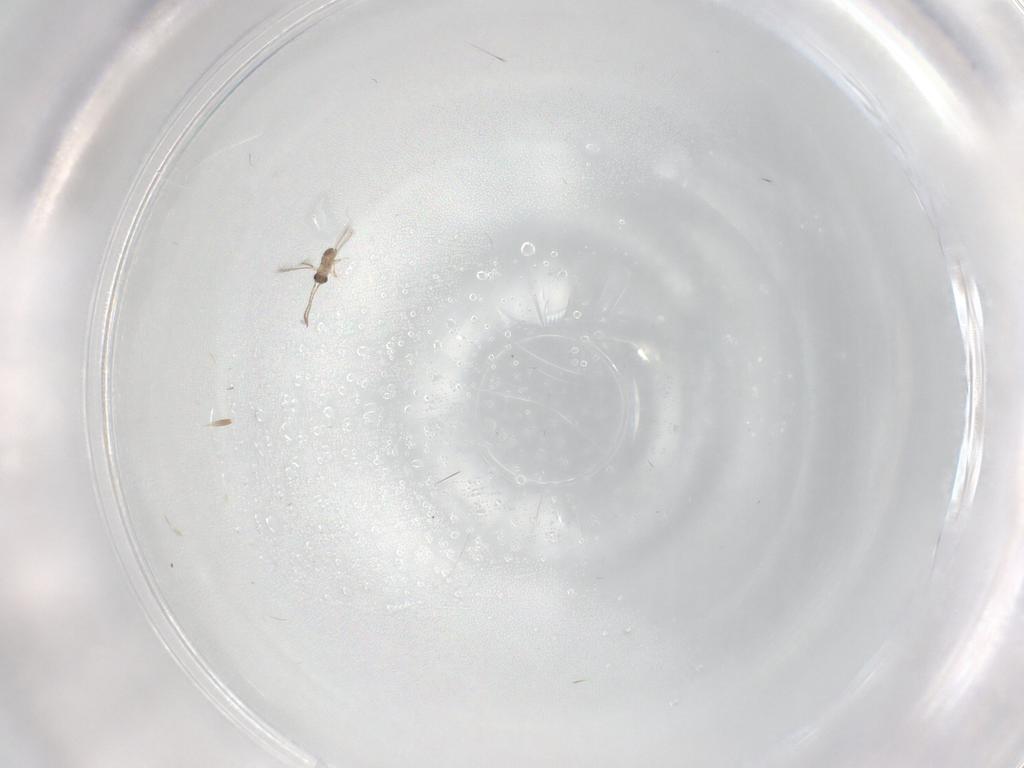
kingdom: Animalia
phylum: Arthropoda
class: Insecta
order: Hymenoptera
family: Mymaridae
